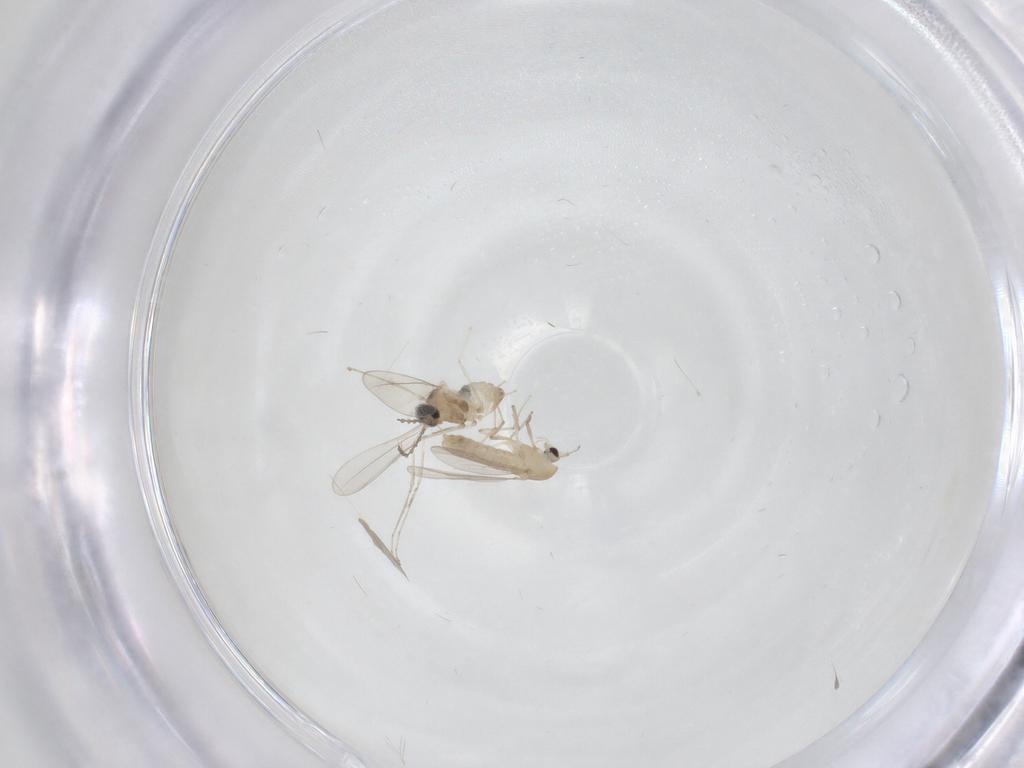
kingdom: Animalia
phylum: Arthropoda
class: Insecta
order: Diptera
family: Chironomidae
